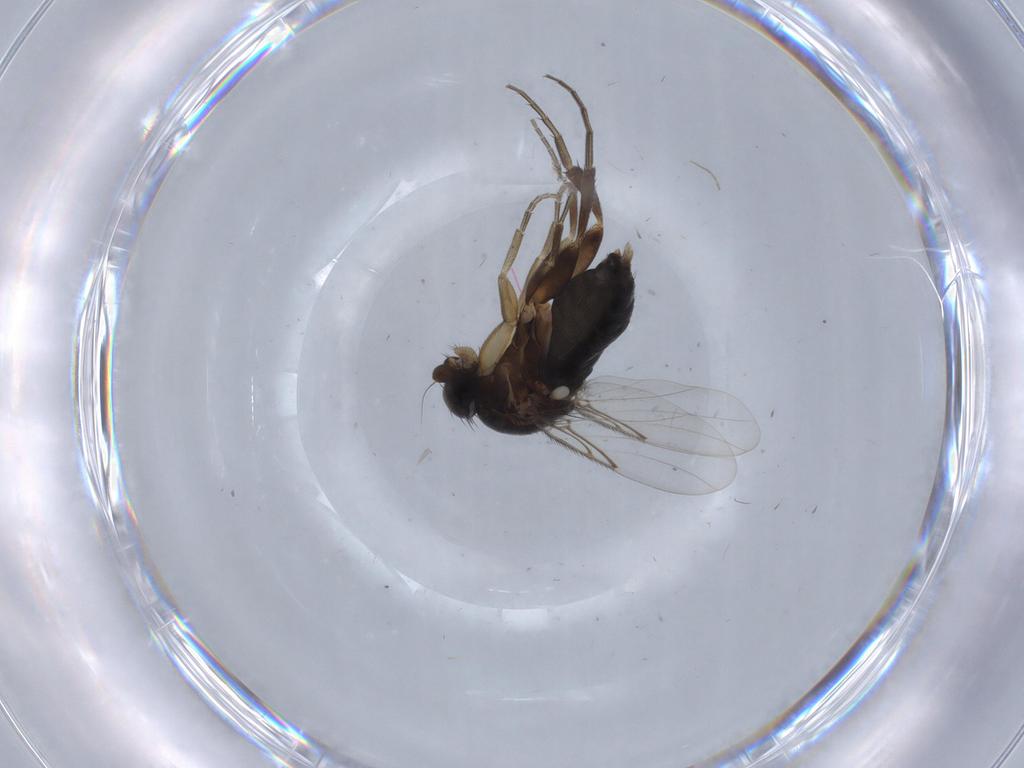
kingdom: Animalia
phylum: Arthropoda
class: Insecta
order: Diptera
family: Phoridae
